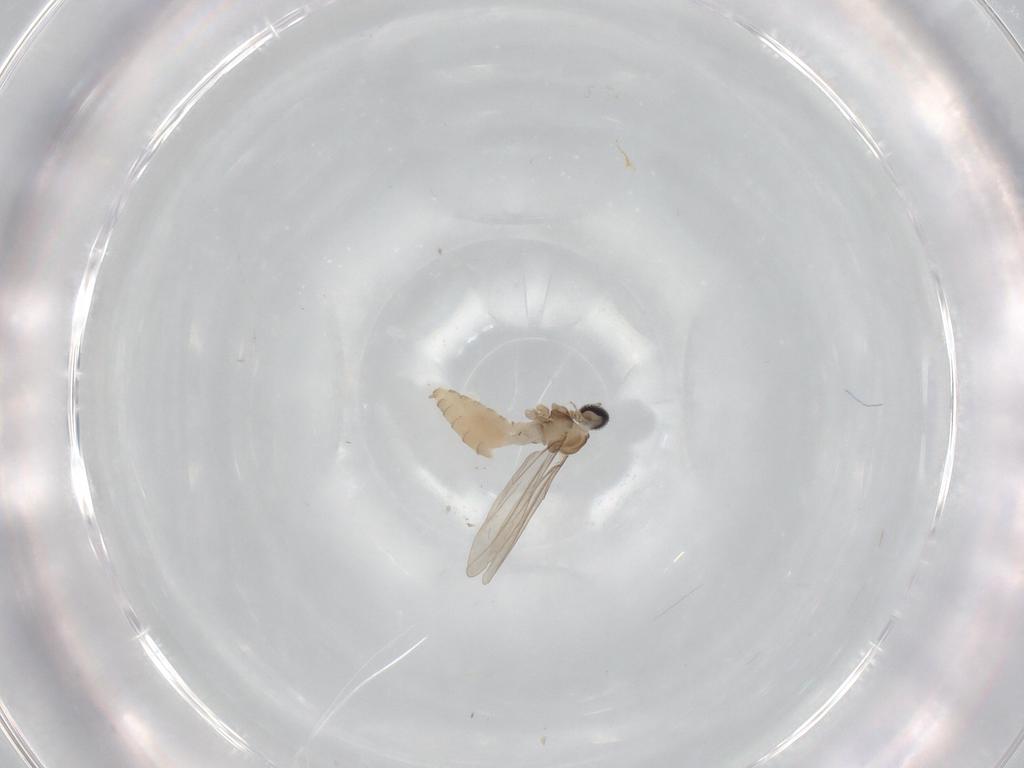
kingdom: Animalia
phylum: Arthropoda
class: Insecta
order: Diptera
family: Cecidomyiidae
